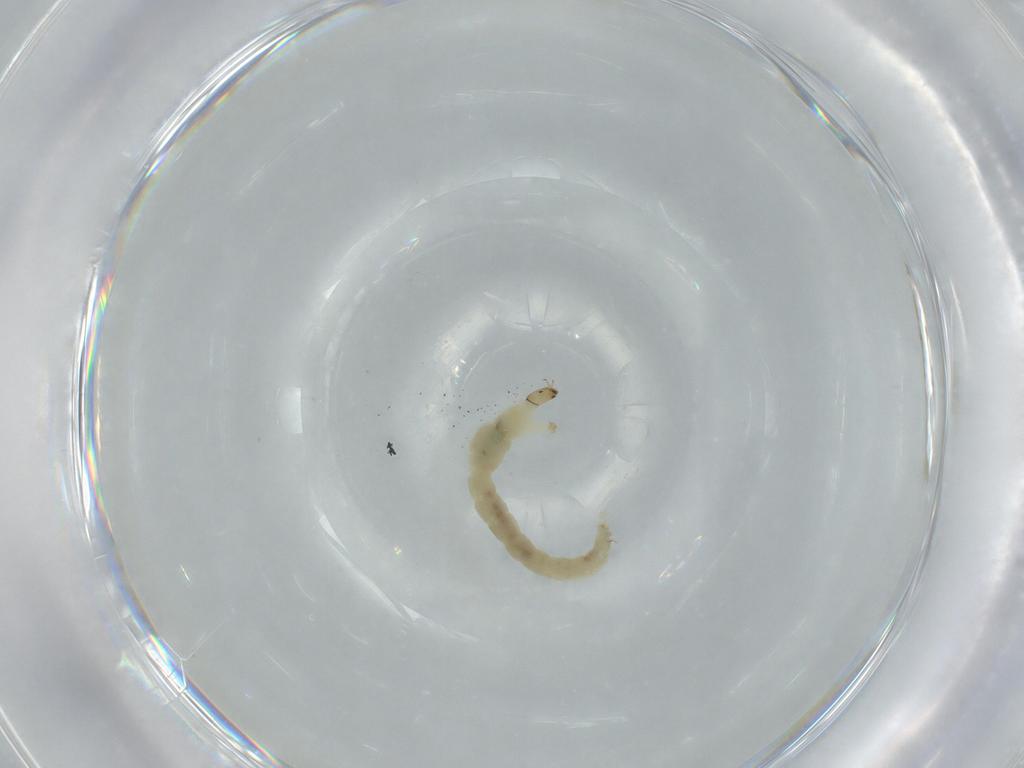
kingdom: Animalia
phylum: Arthropoda
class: Insecta
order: Diptera
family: Chironomidae
